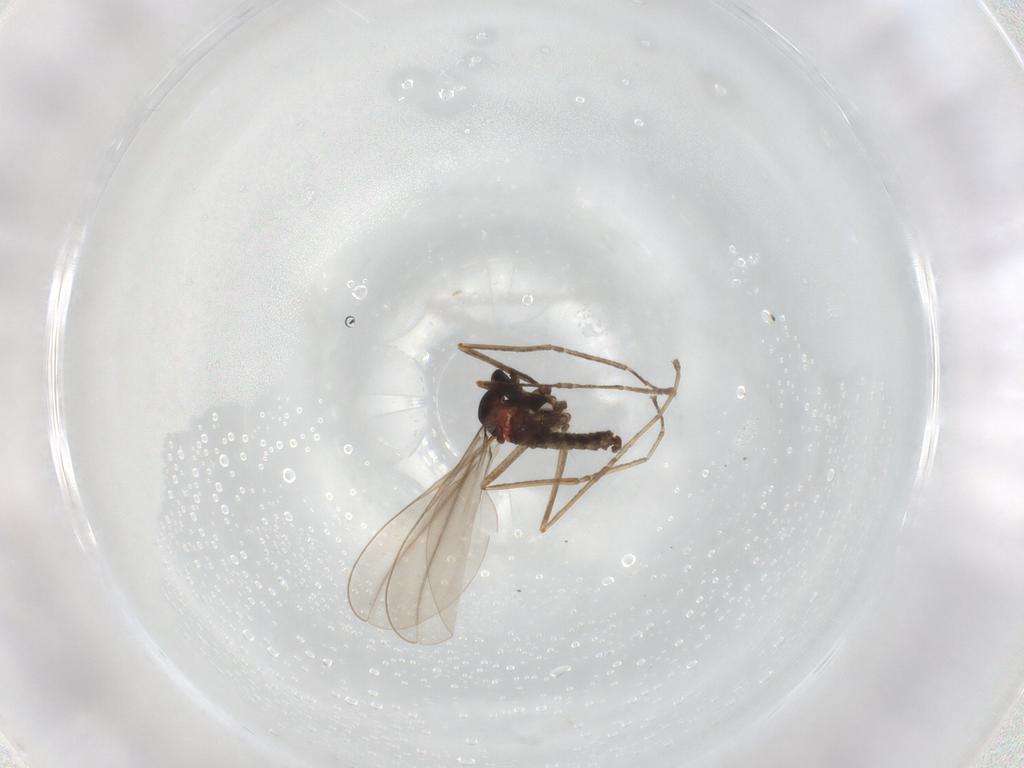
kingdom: Animalia
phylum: Arthropoda
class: Insecta
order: Diptera
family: Cecidomyiidae
